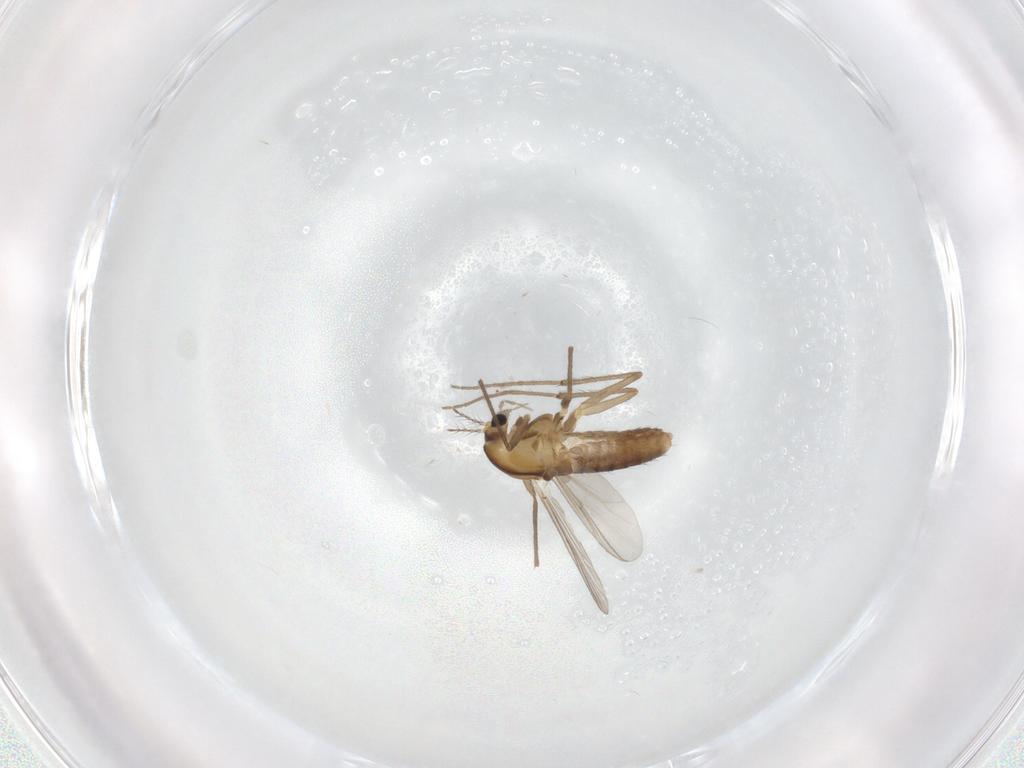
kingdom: Animalia
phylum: Arthropoda
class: Insecta
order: Diptera
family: Chironomidae
